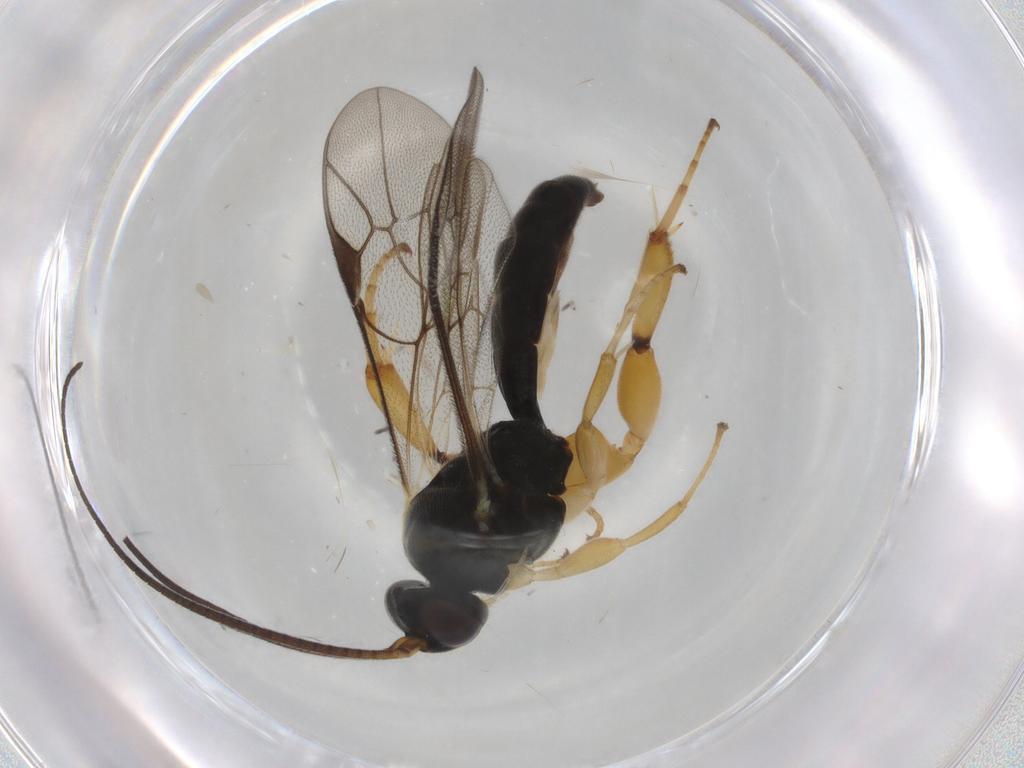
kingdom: Animalia
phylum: Arthropoda
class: Insecta
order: Hymenoptera
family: Ichneumonidae
